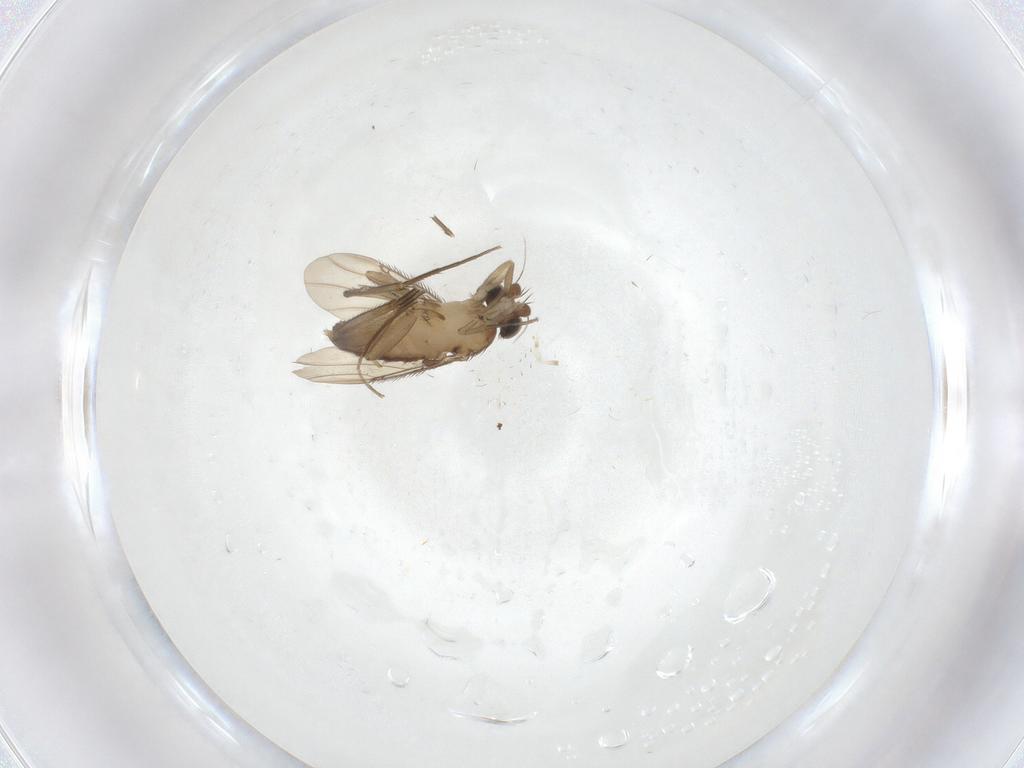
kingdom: Animalia
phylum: Arthropoda
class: Insecta
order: Diptera
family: Phoridae
